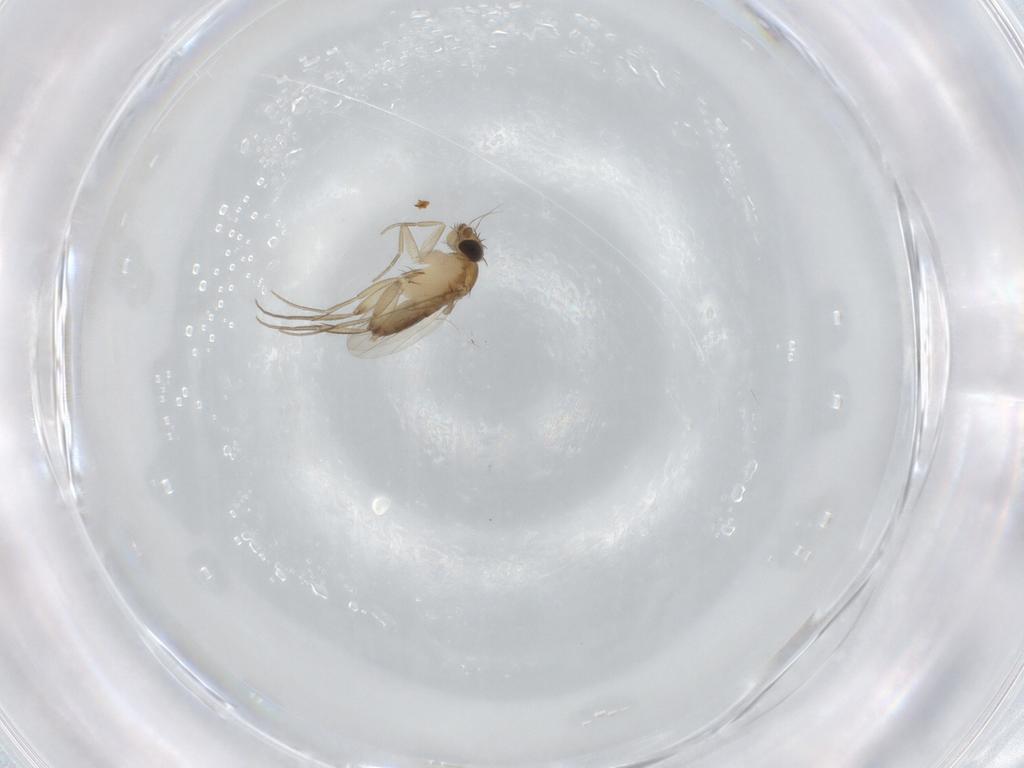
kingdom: Animalia
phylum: Arthropoda
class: Insecta
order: Diptera
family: Phoridae
